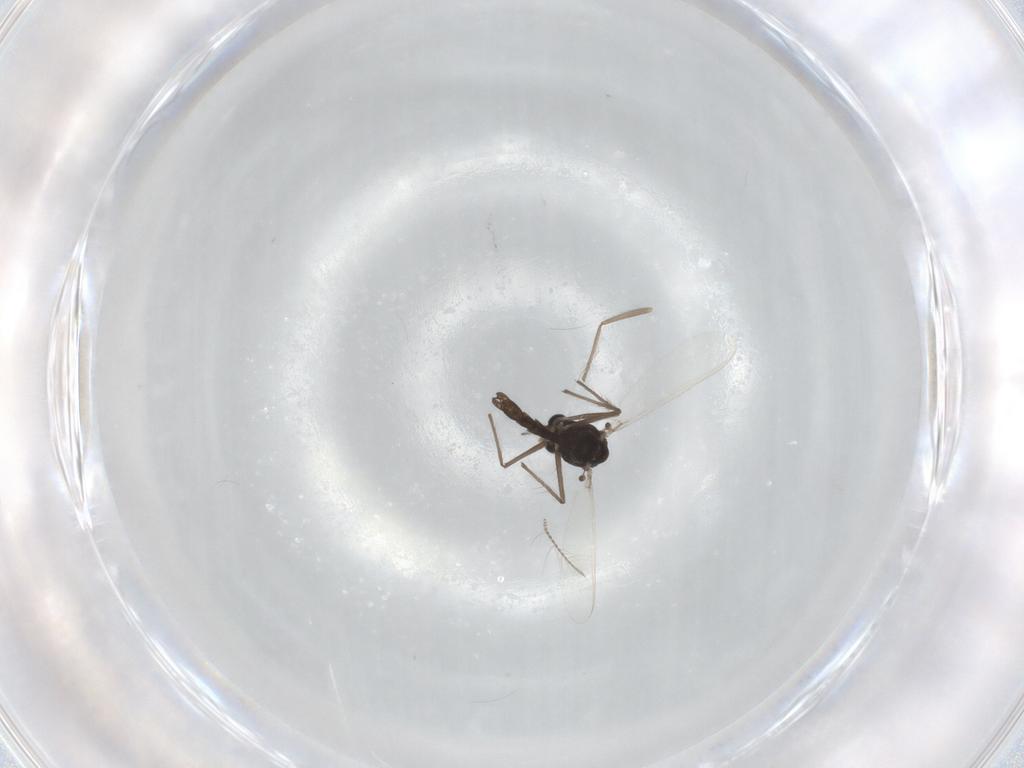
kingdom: Animalia
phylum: Arthropoda
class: Insecta
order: Diptera
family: Chironomidae
